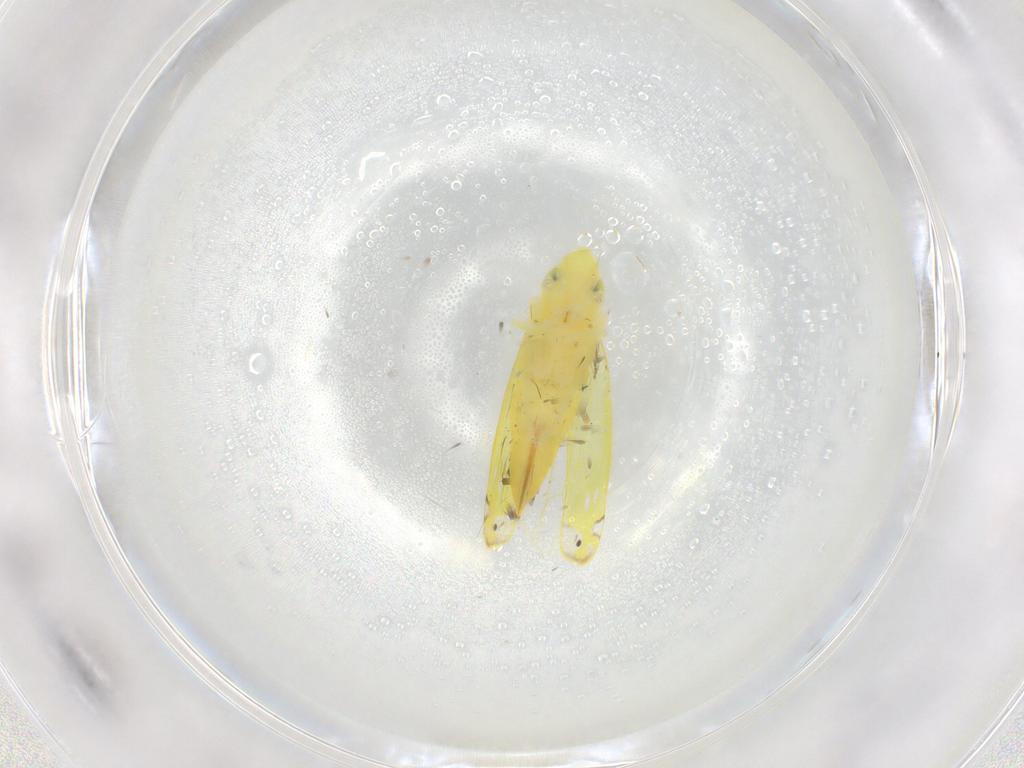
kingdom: Animalia
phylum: Arthropoda
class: Insecta
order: Hemiptera
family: Cicadellidae
